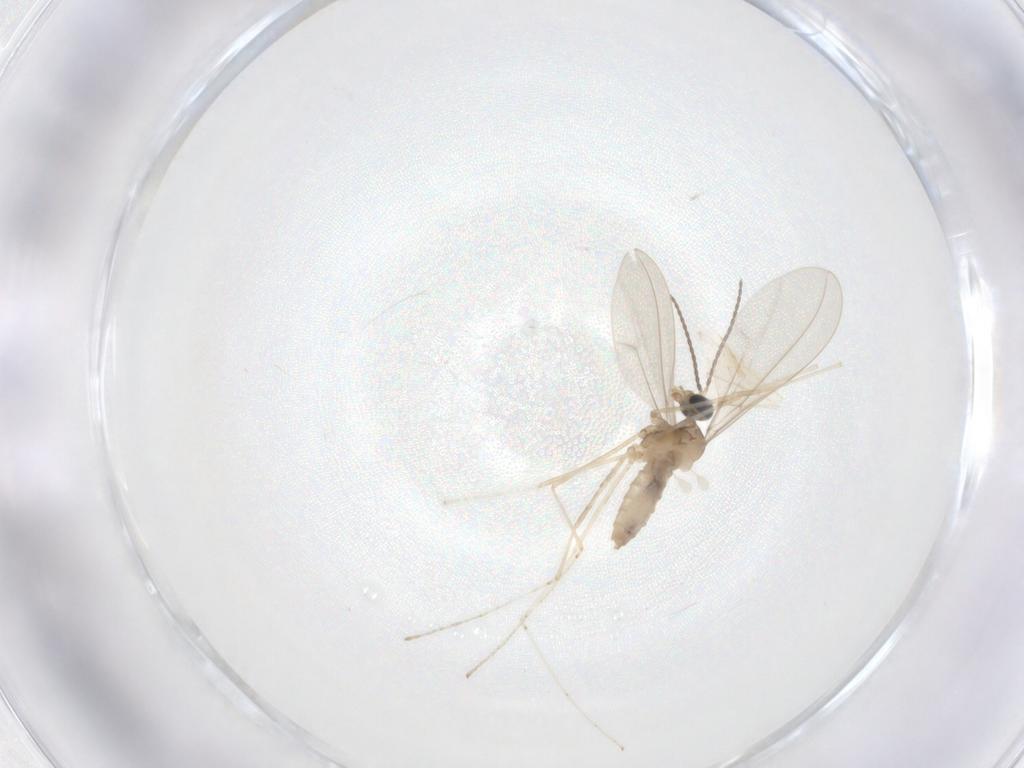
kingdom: Animalia
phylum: Arthropoda
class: Insecta
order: Diptera
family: Cecidomyiidae
